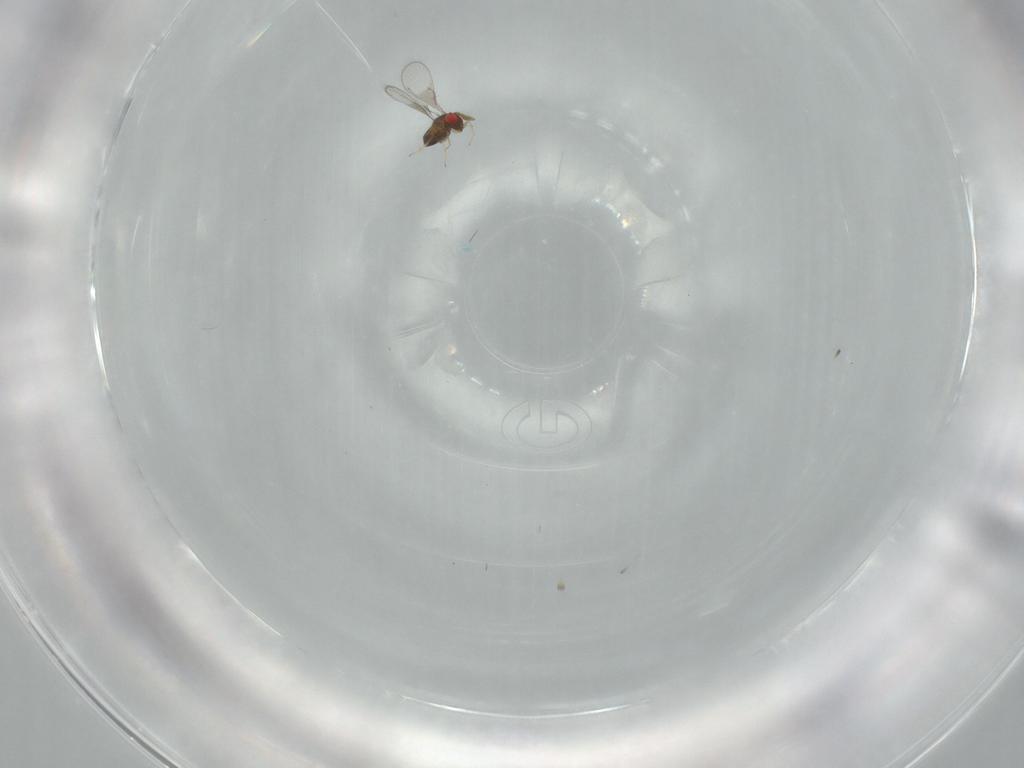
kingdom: Animalia
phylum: Arthropoda
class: Insecta
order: Hymenoptera
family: Trichogrammatidae
